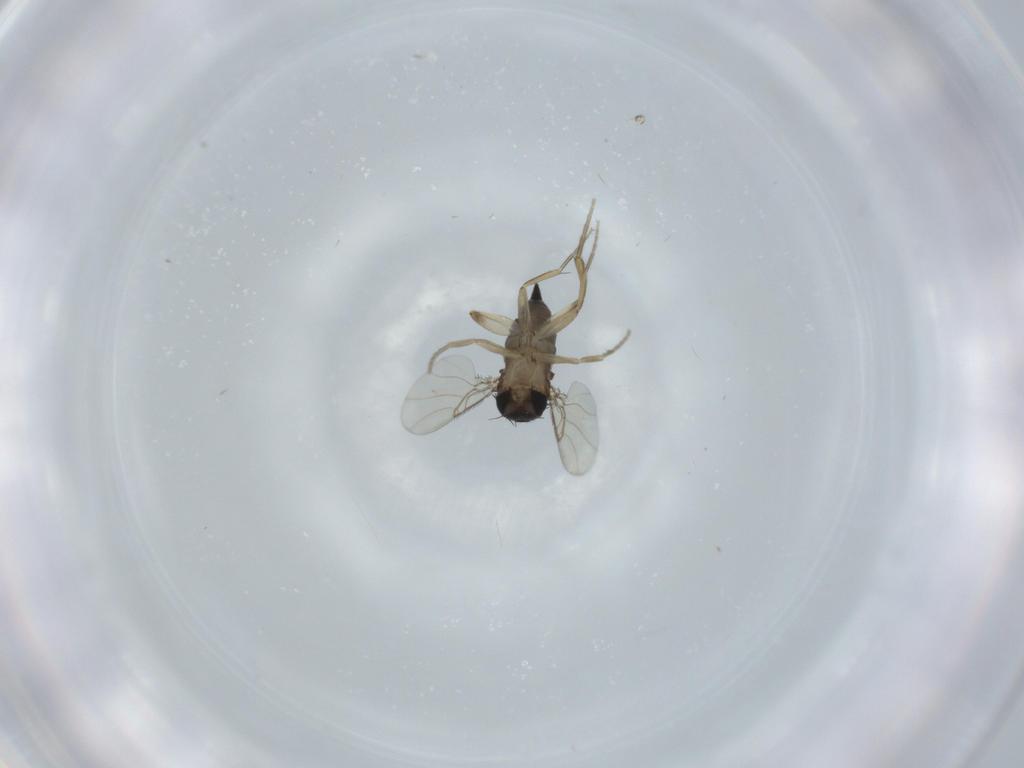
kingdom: Animalia
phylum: Arthropoda
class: Insecta
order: Diptera
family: Phoridae
